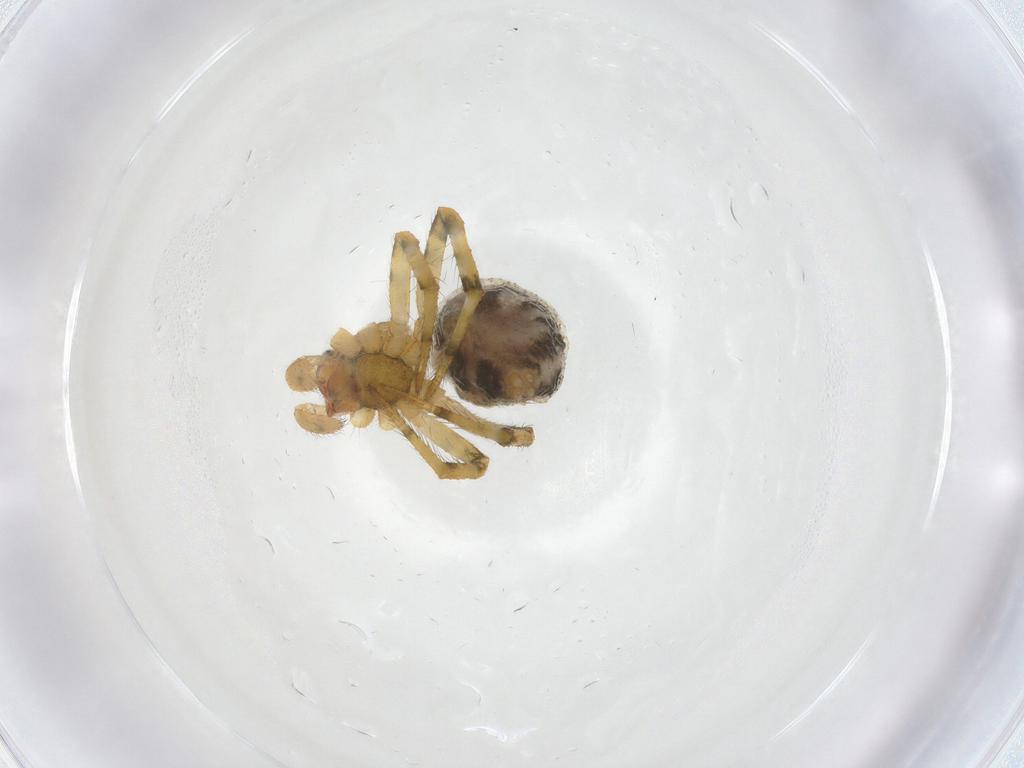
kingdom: Animalia
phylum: Arthropoda
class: Arachnida
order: Araneae
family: Theridiidae
